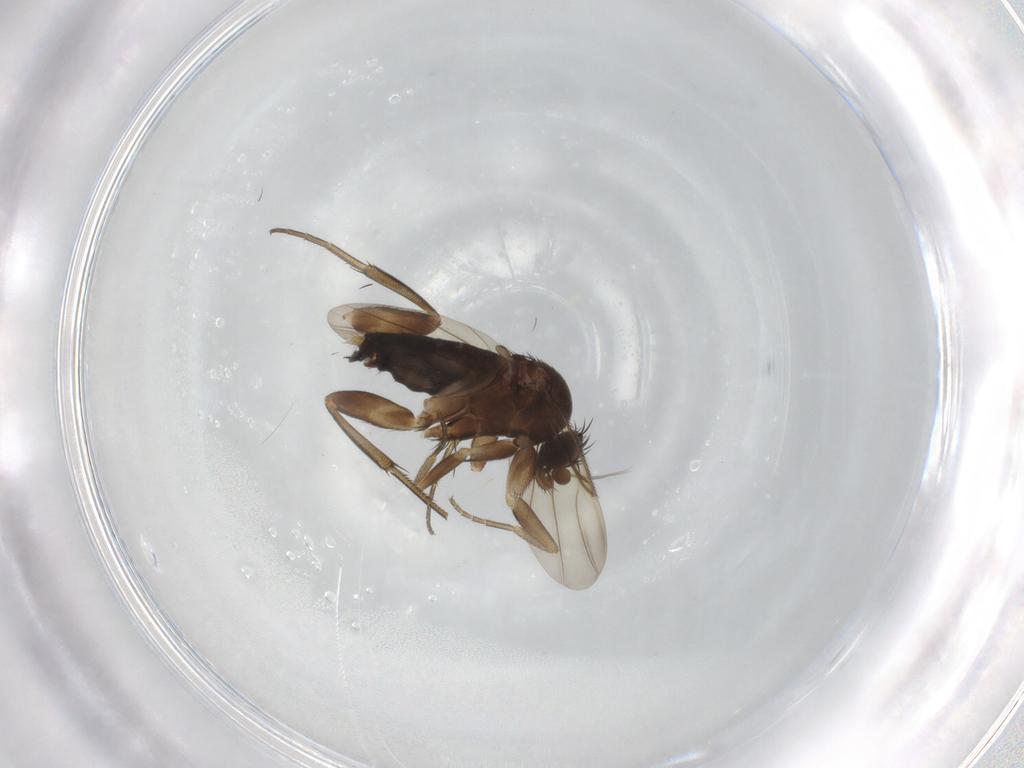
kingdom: Animalia
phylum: Arthropoda
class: Insecta
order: Diptera
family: Phoridae
